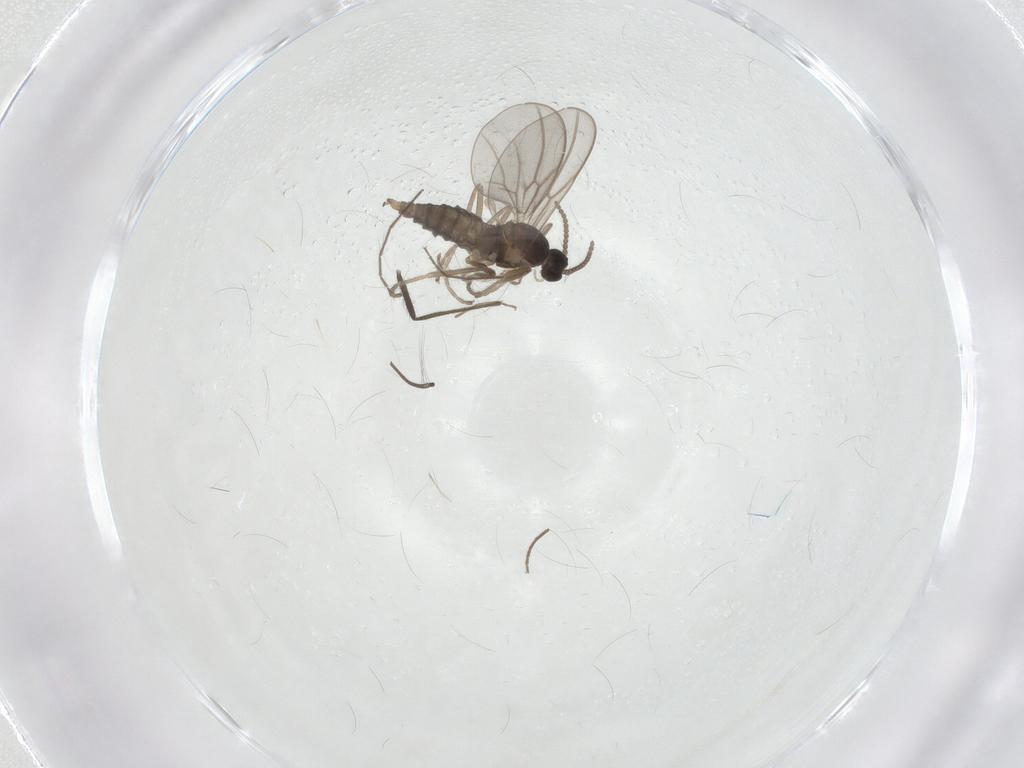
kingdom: Animalia
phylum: Arthropoda
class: Insecta
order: Diptera
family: Cecidomyiidae
